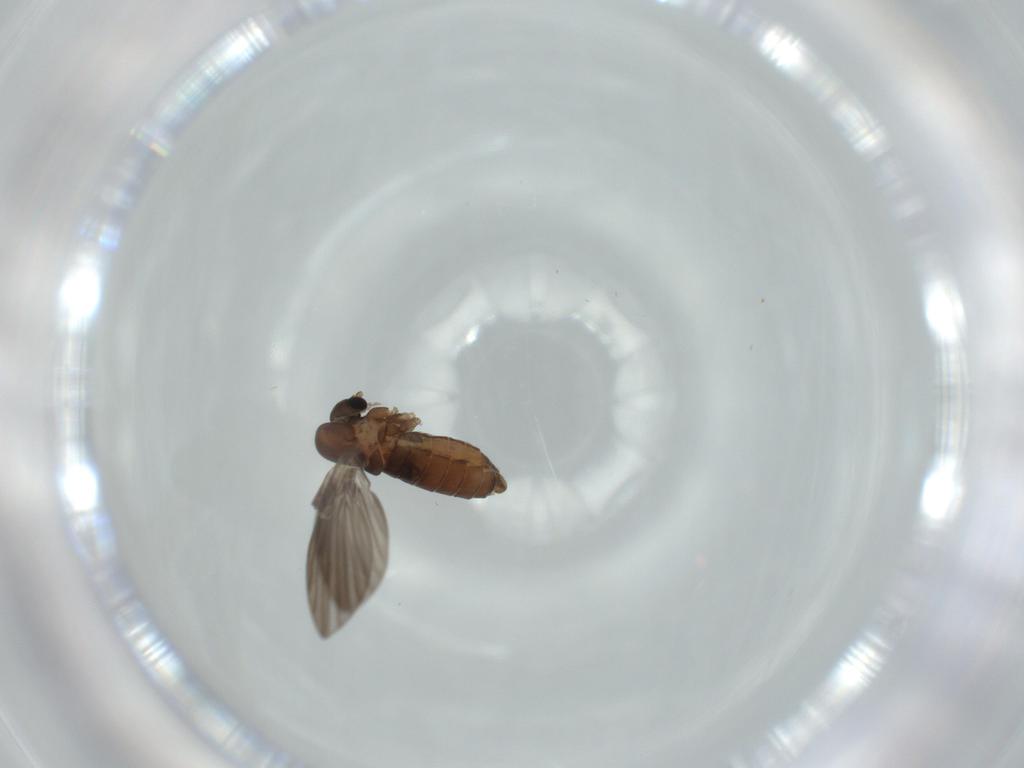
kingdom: Animalia
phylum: Arthropoda
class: Insecta
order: Diptera
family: Psychodidae
